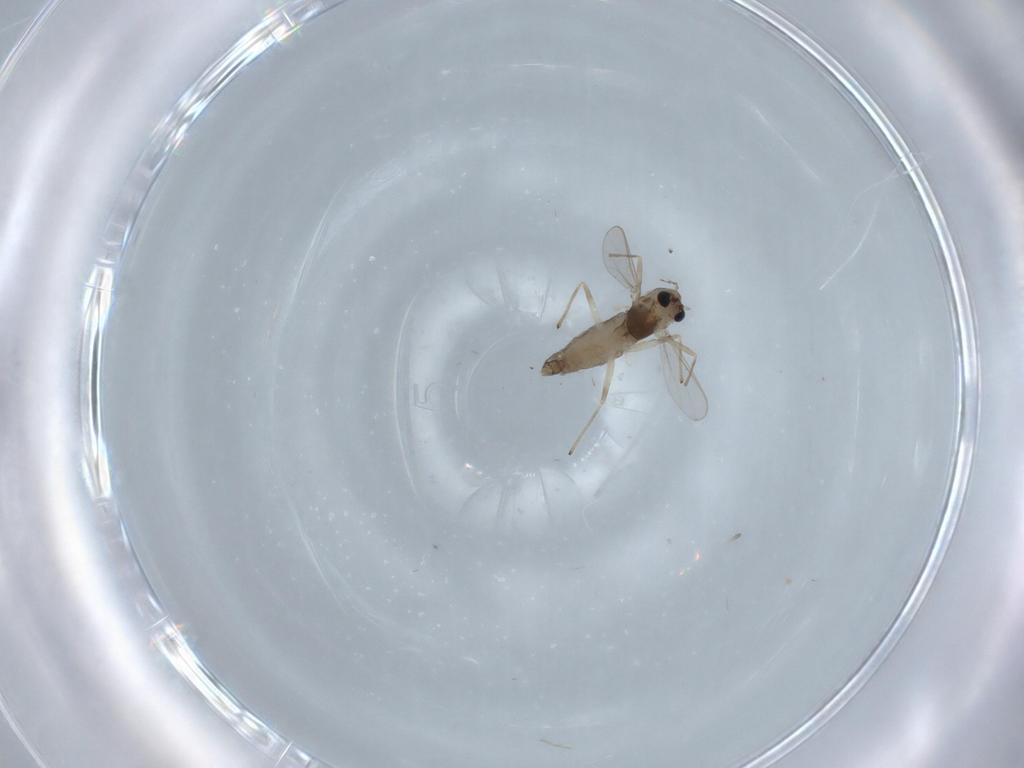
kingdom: Animalia
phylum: Arthropoda
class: Insecta
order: Diptera
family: Chironomidae
